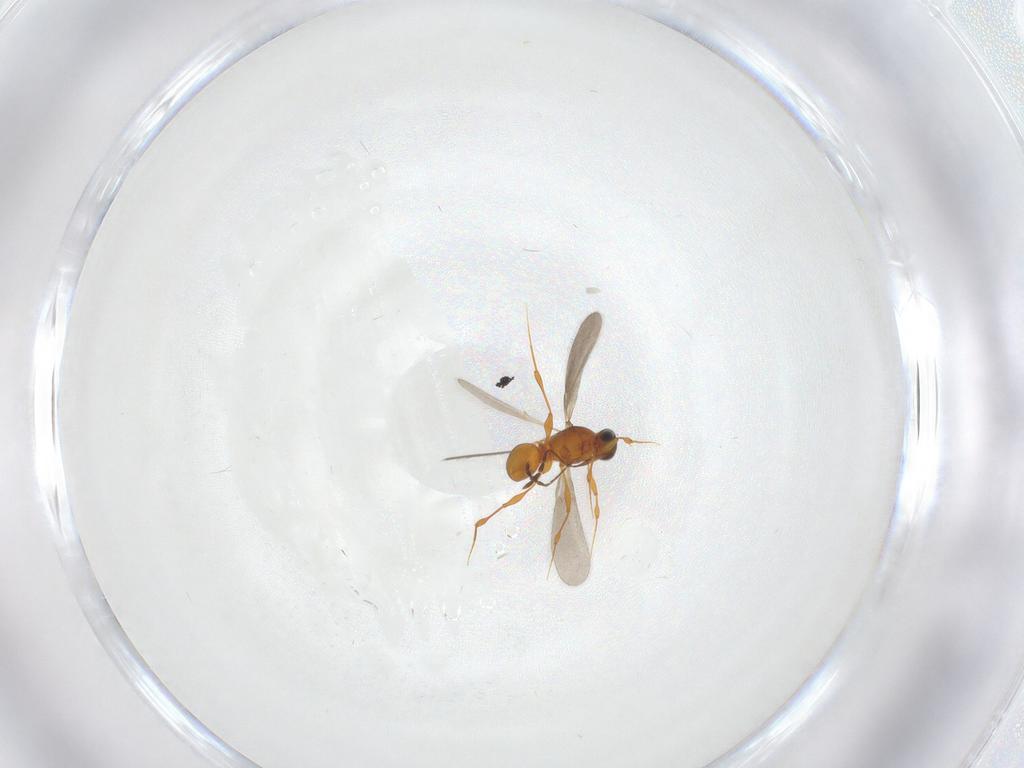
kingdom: Animalia
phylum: Arthropoda
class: Insecta
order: Hymenoptera
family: Platygastridae
